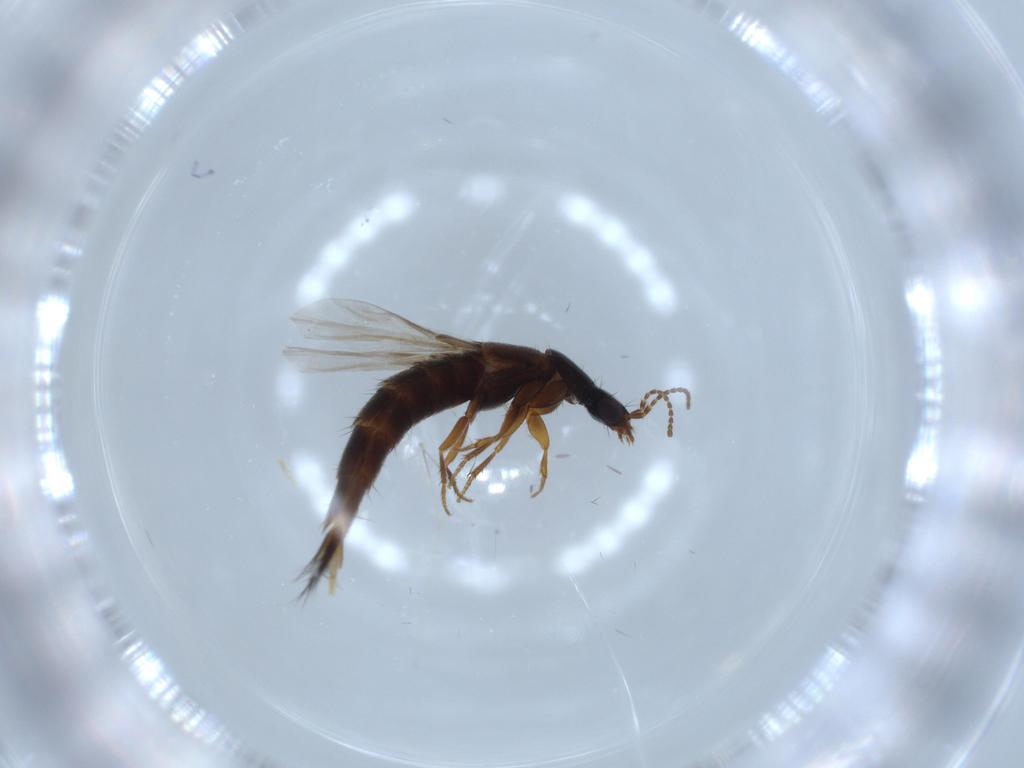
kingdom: Animalia
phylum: Arthropoda
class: Insecta
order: Coleoptera
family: Staphylinidae
